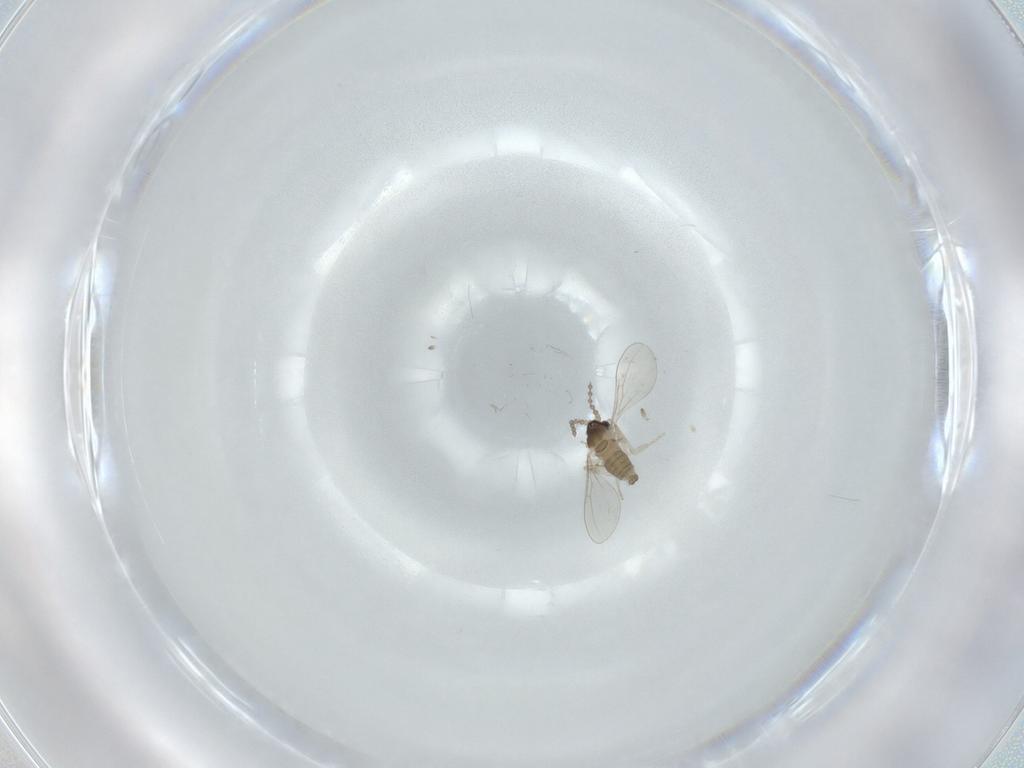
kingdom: Animalia
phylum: Arthropoda
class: Insecta
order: Diptera
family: Cecidomyiidae
